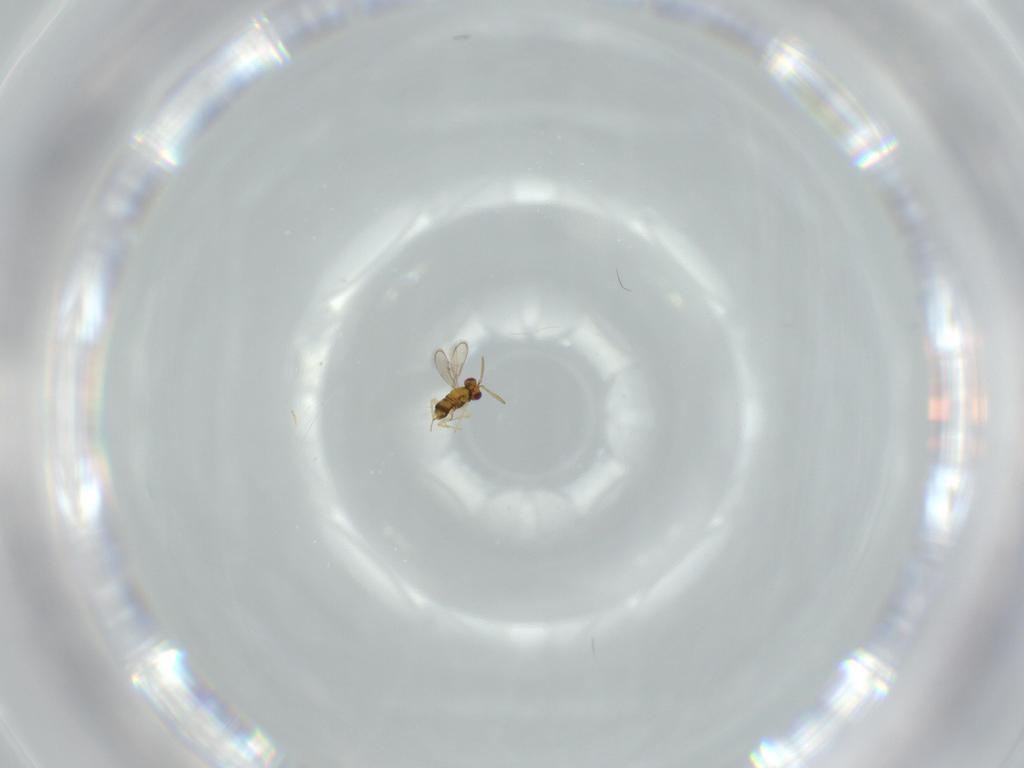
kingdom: Animalia
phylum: Arthropoda
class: Insecta
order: Hymenoptera
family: Aphelinidae
